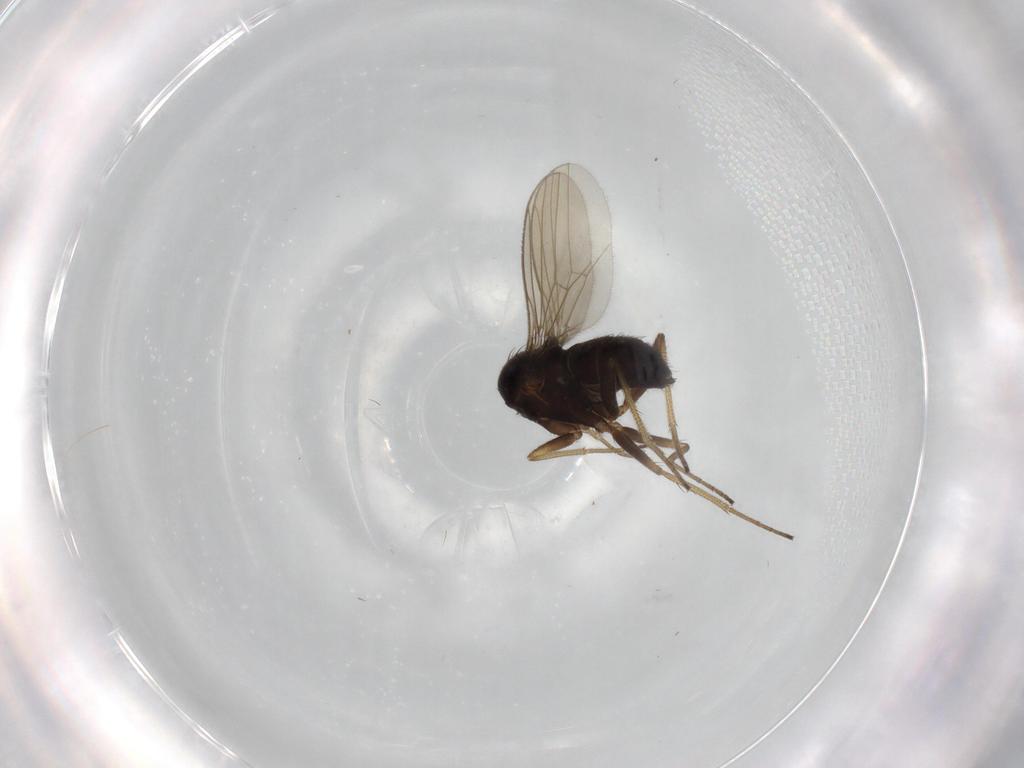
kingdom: Animalia
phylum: Arthropoda
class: Insecta
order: Diptera
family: Dolichopodidae
